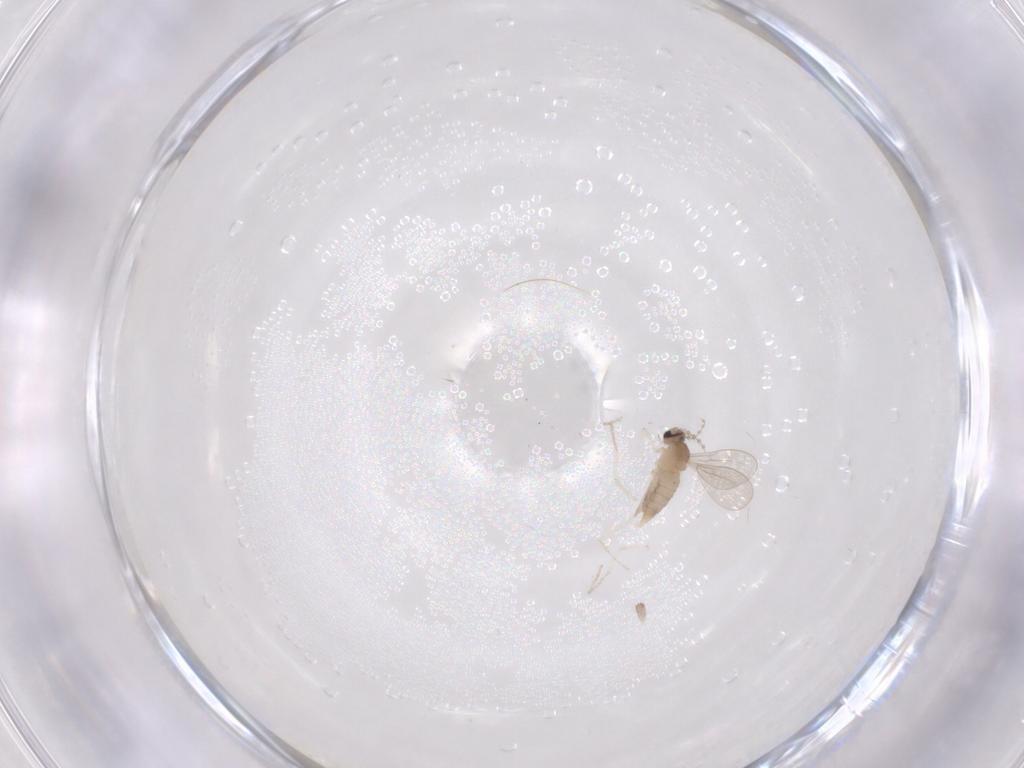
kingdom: Animalia
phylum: Arthropoda
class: Insecta
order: Diptera
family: Cecidomyiidae
